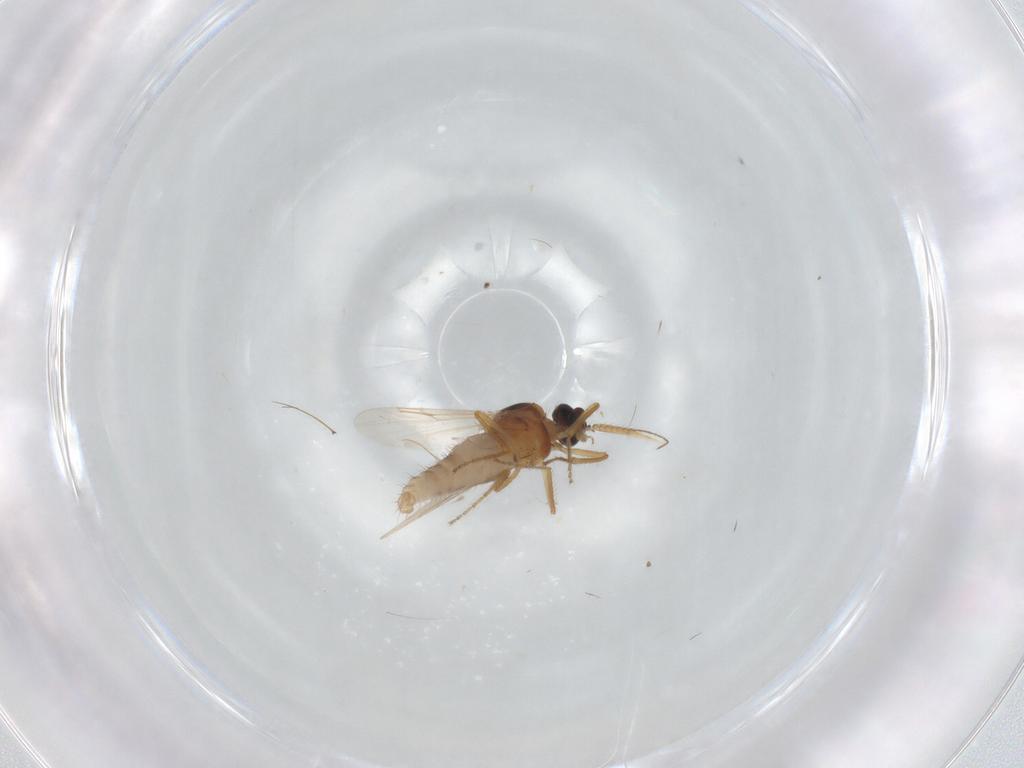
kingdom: Animalia
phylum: Arthropoda
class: Insecta
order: Diptera
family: Ceratopogonidae
